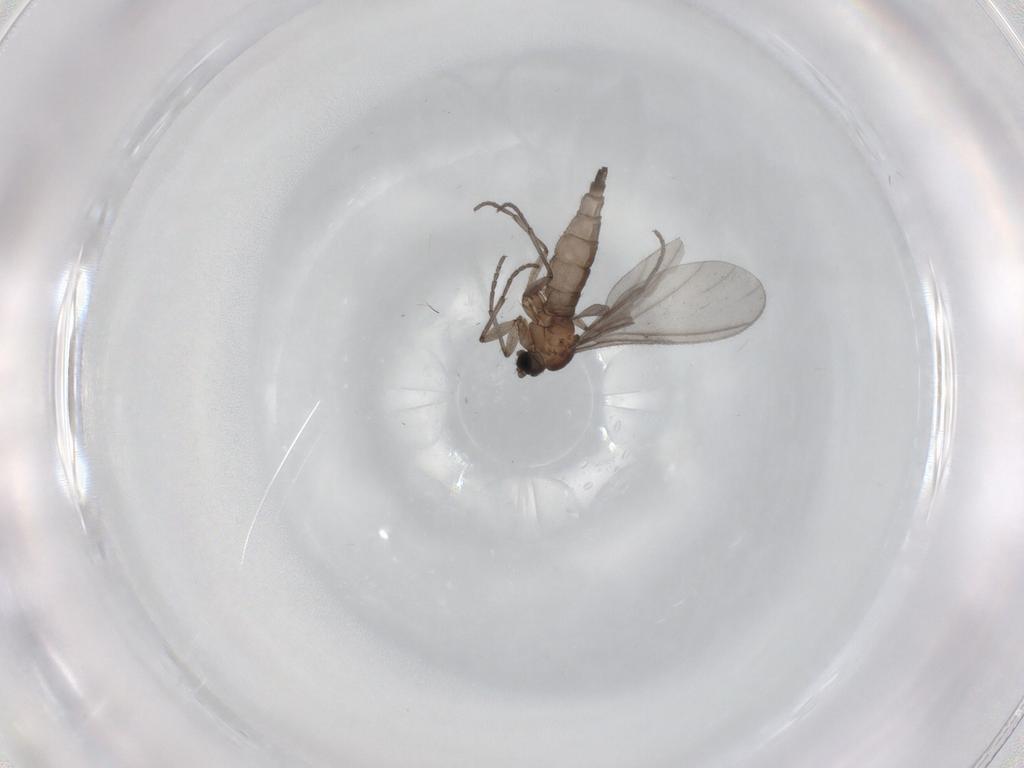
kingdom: Animalia
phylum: Arthropoda
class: Insecta
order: Diptera
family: Sciaridae
